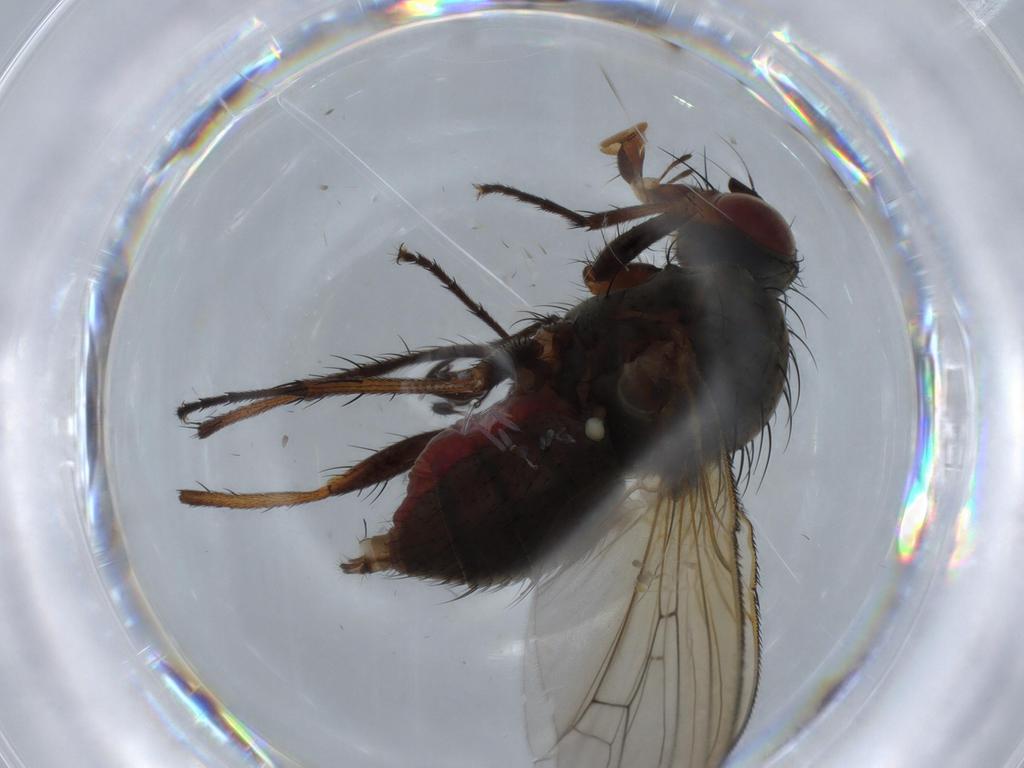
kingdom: Animalia
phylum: Arthropoda
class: Insecta
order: Diptera
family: Anthomyiidae
